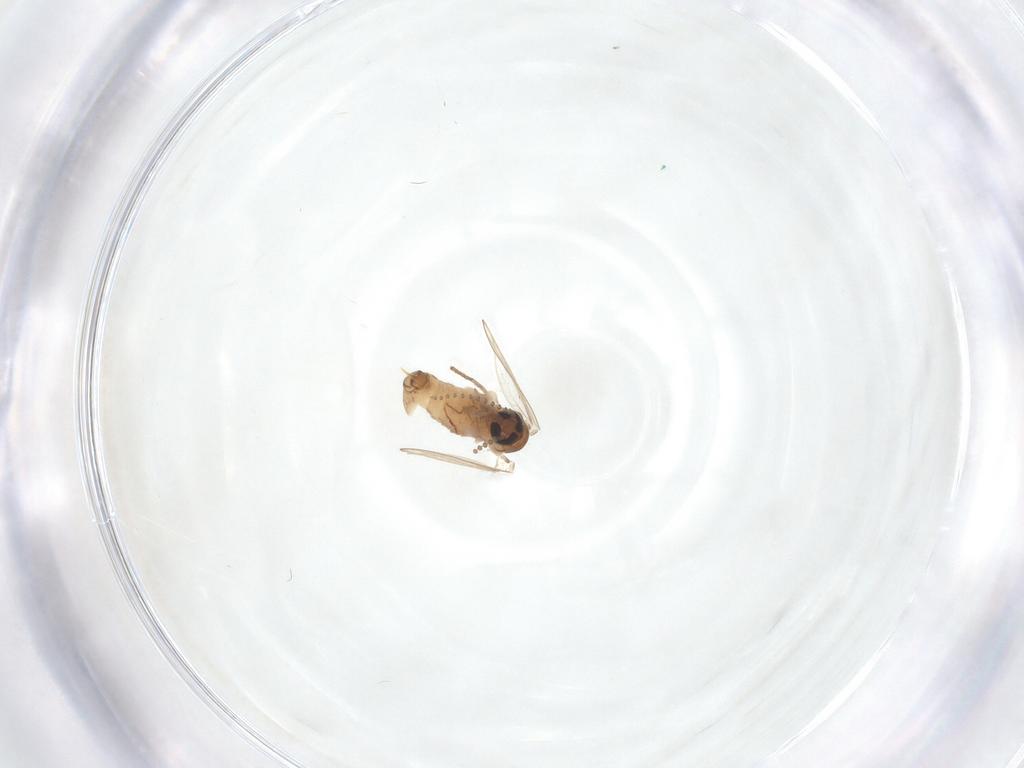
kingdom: Animalia
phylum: Arthropoda
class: Insecta
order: Diptera
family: Psychodidae
